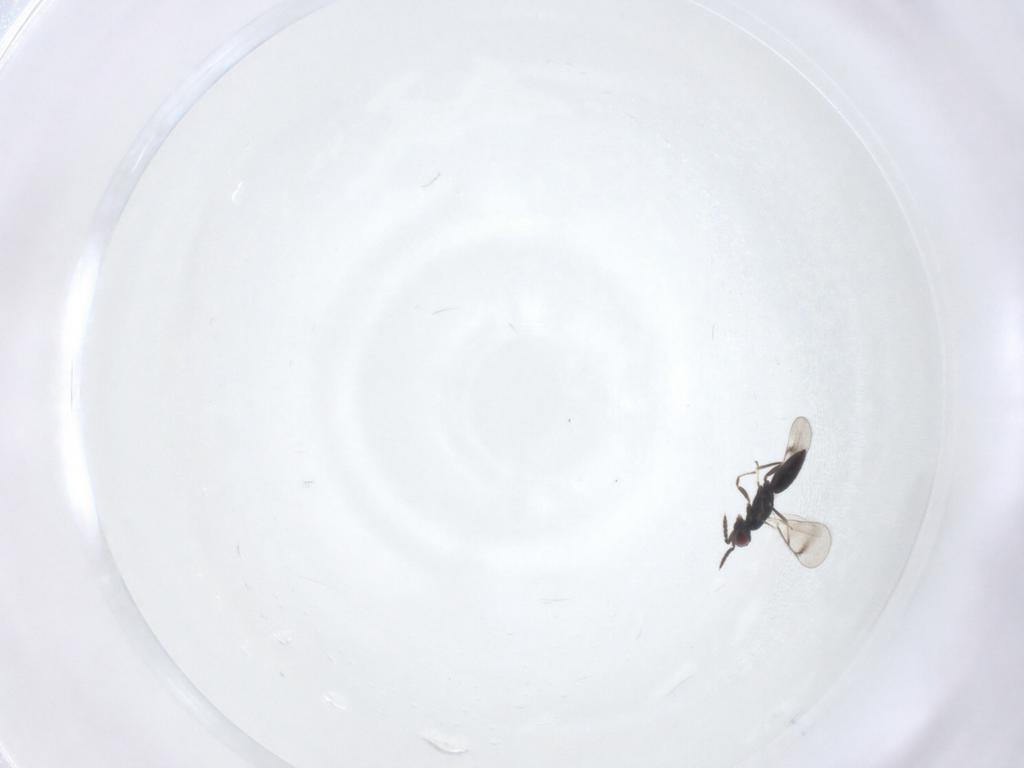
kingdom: Animalia
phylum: Arthropoda
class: Insecta
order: Hymenoptera
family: Eulophidae
